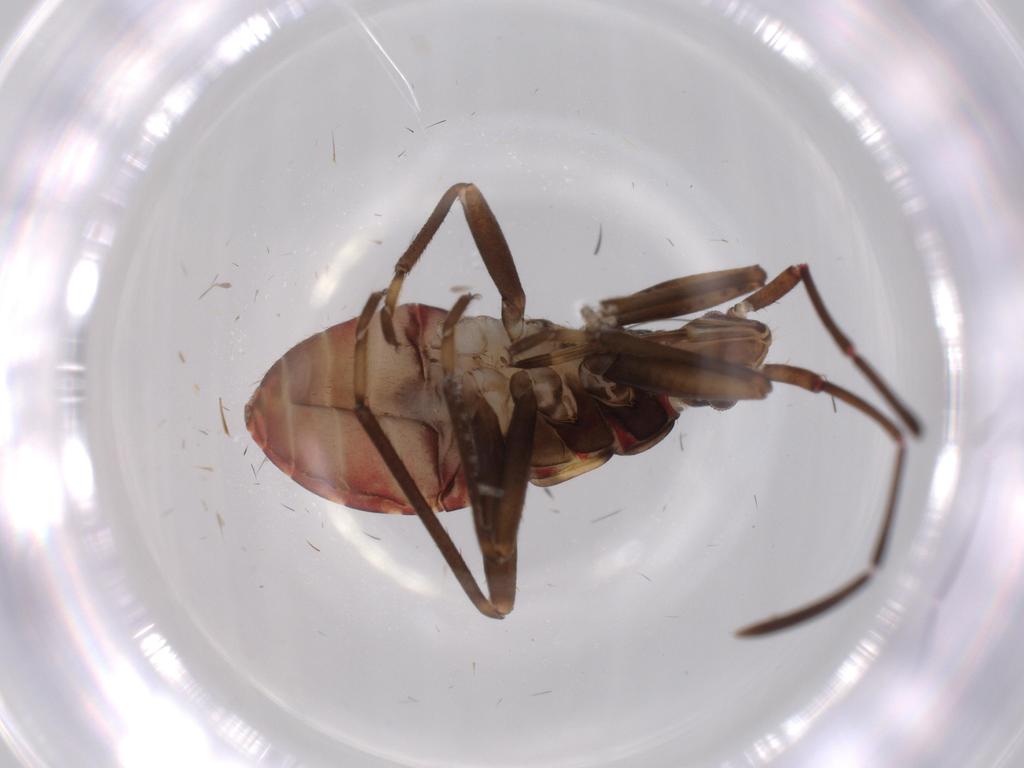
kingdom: Animalia
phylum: Arthropoda
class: Insecta
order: Hemiptera
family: Rhyparochromidae
